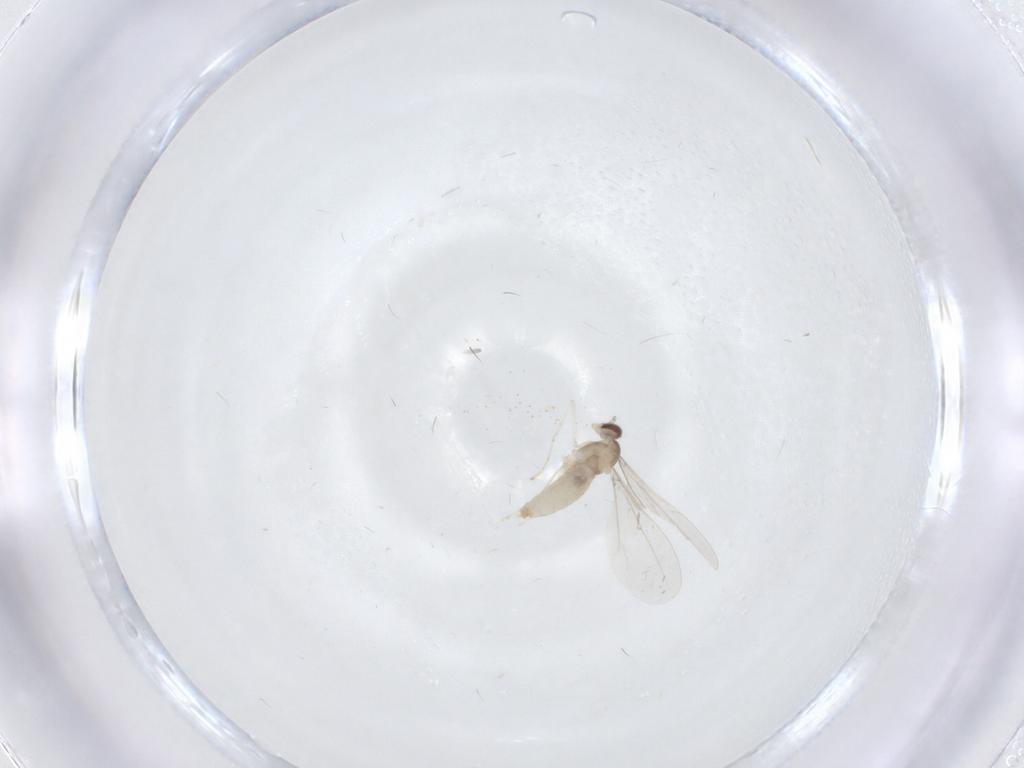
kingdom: Animalia
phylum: Arthropoda
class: Insecta
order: Diptera
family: Cecidomyiidae
